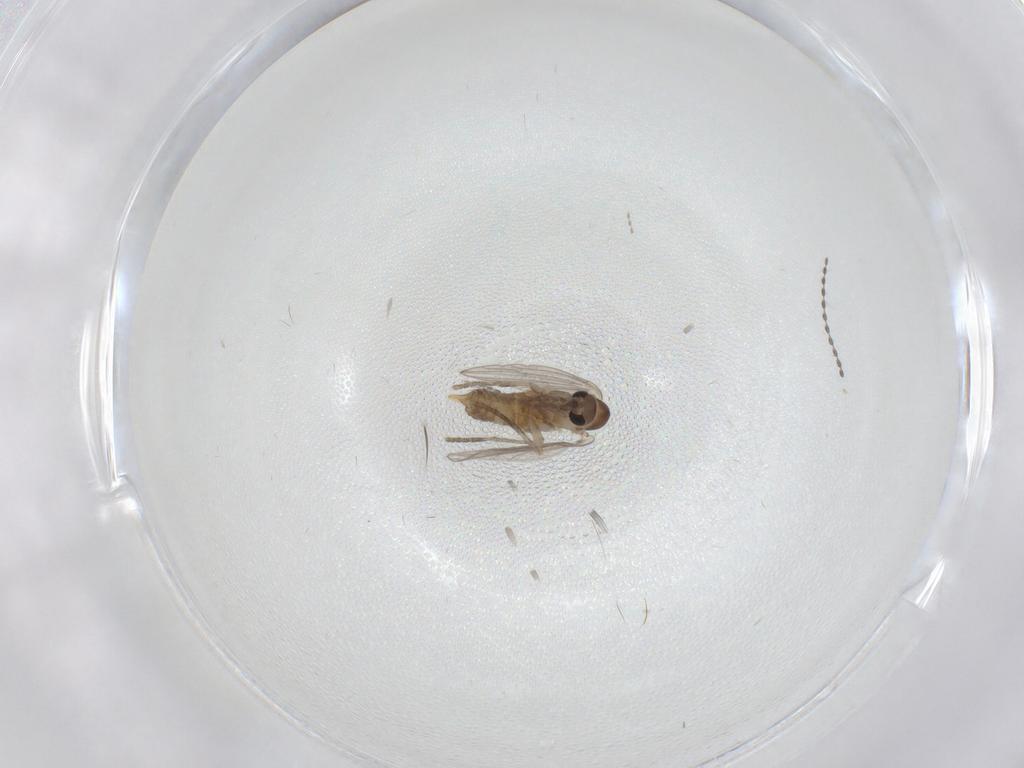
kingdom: Animalia
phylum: Arthropoda
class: Insecta
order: Diptera
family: Psychodidae
